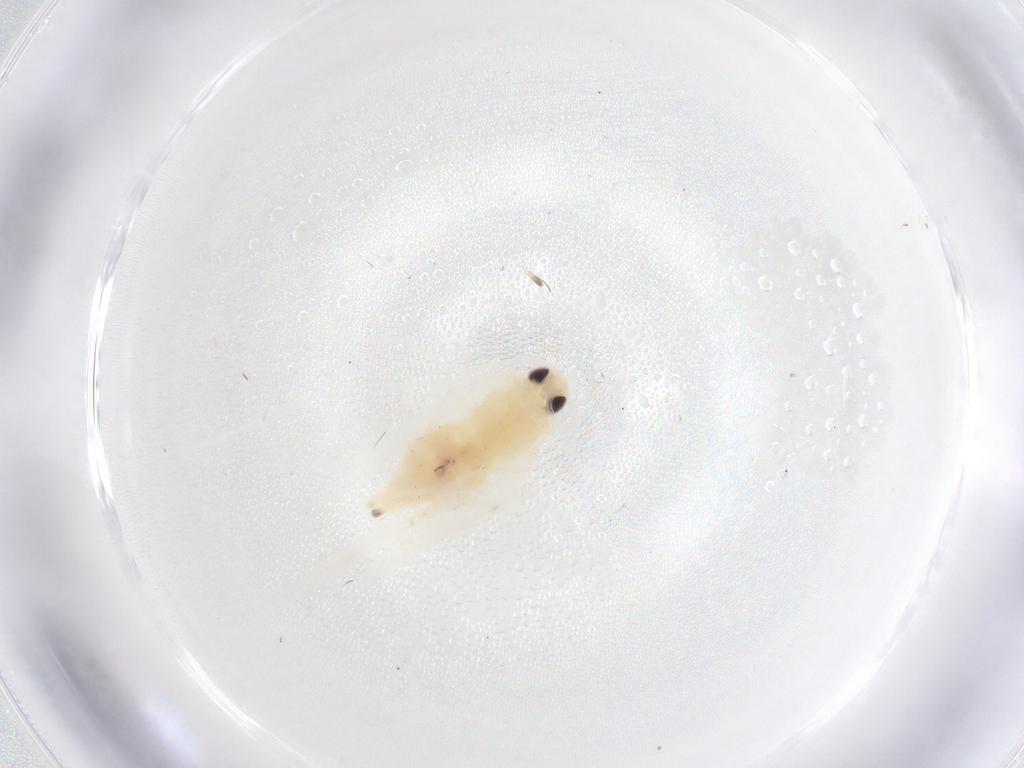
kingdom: Animalia
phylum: Arthropoda
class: Insecta
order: Lepidoptera
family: Gelechiidae
